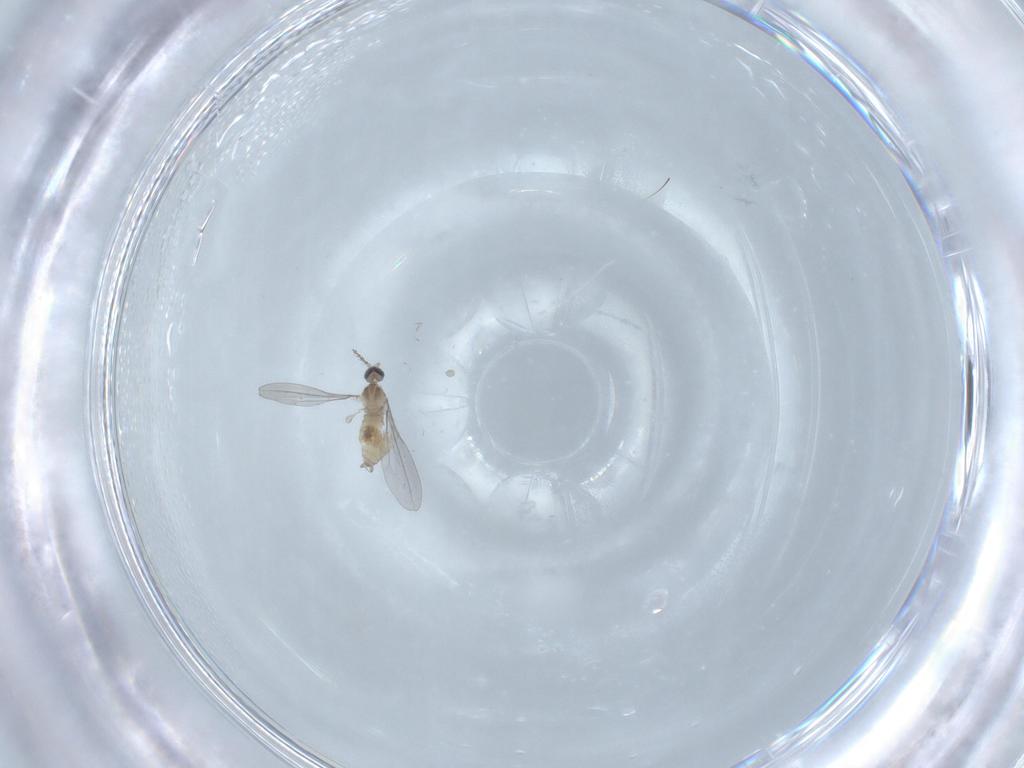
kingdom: Animalia
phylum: Arthropoda
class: Insecta
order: Diptera
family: Cecidomyiidae
